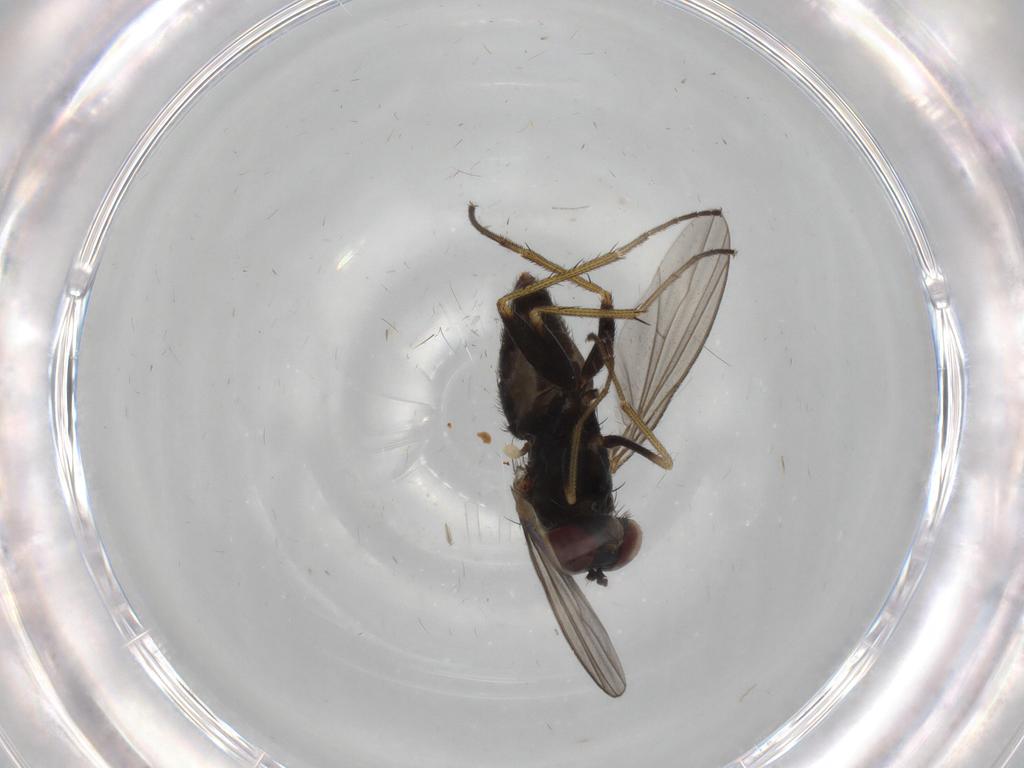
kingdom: Animalia
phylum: Arthropoda
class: Insecta
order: Diptera
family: Dolichopodidae
